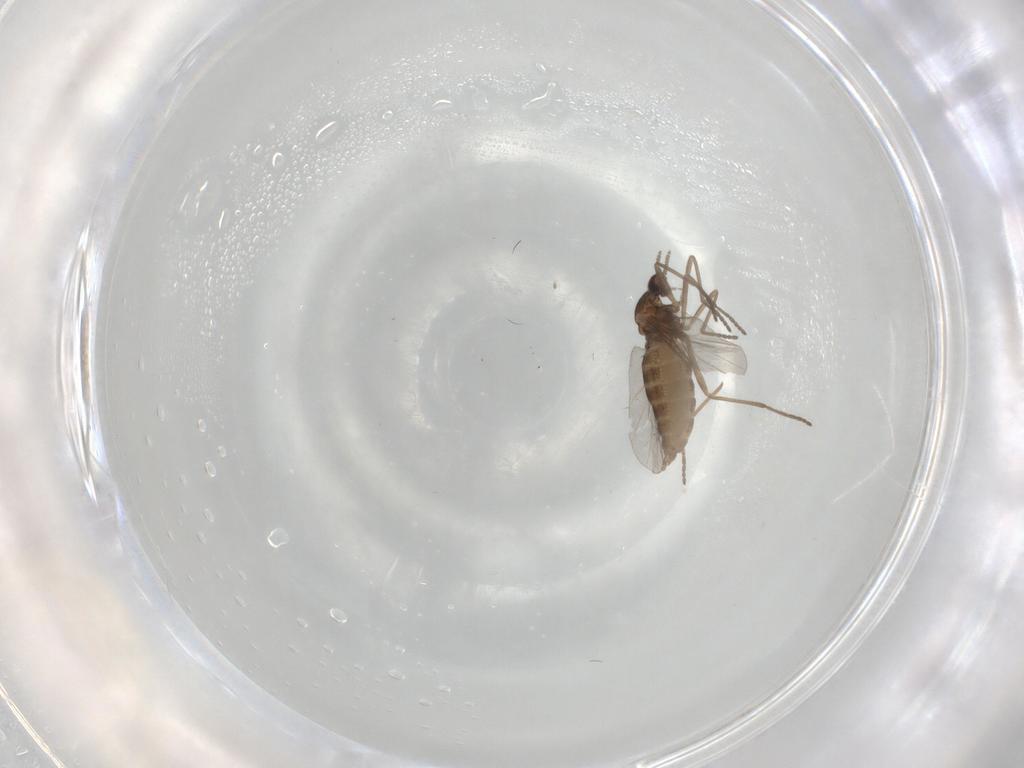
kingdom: Animalia
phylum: Arthropoda
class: Insecta
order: Diptera
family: Cecidomyiidae
